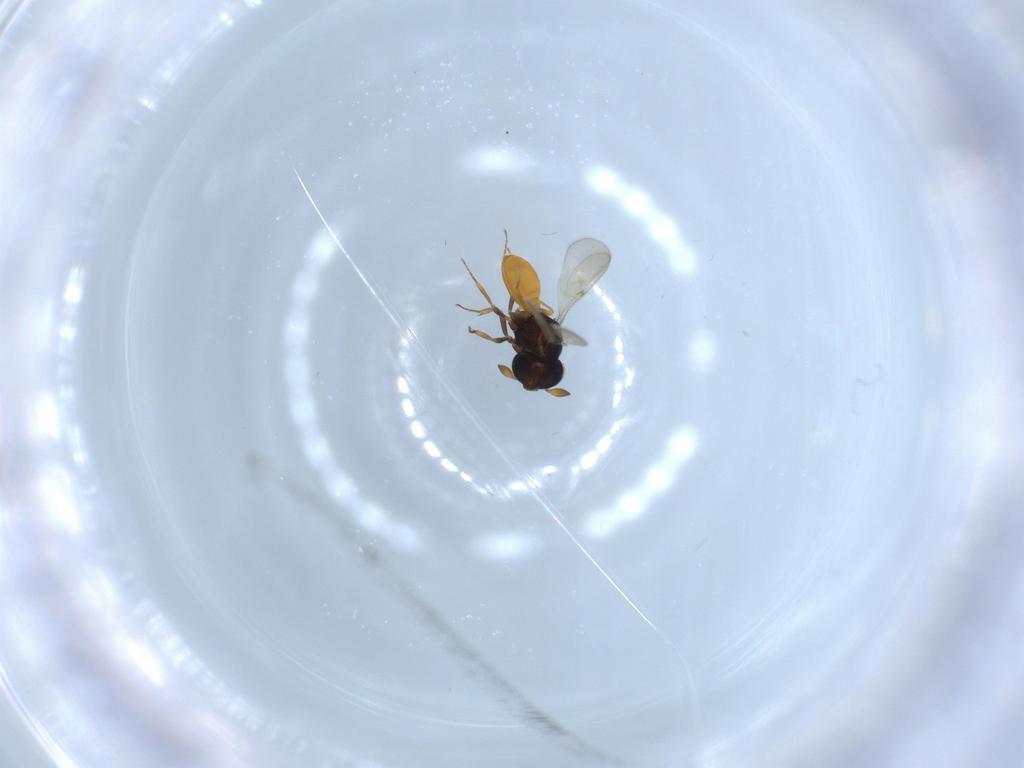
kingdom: Animalia
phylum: Arthropoda
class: Insecta
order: Hymenoptera
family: Scelionidae
